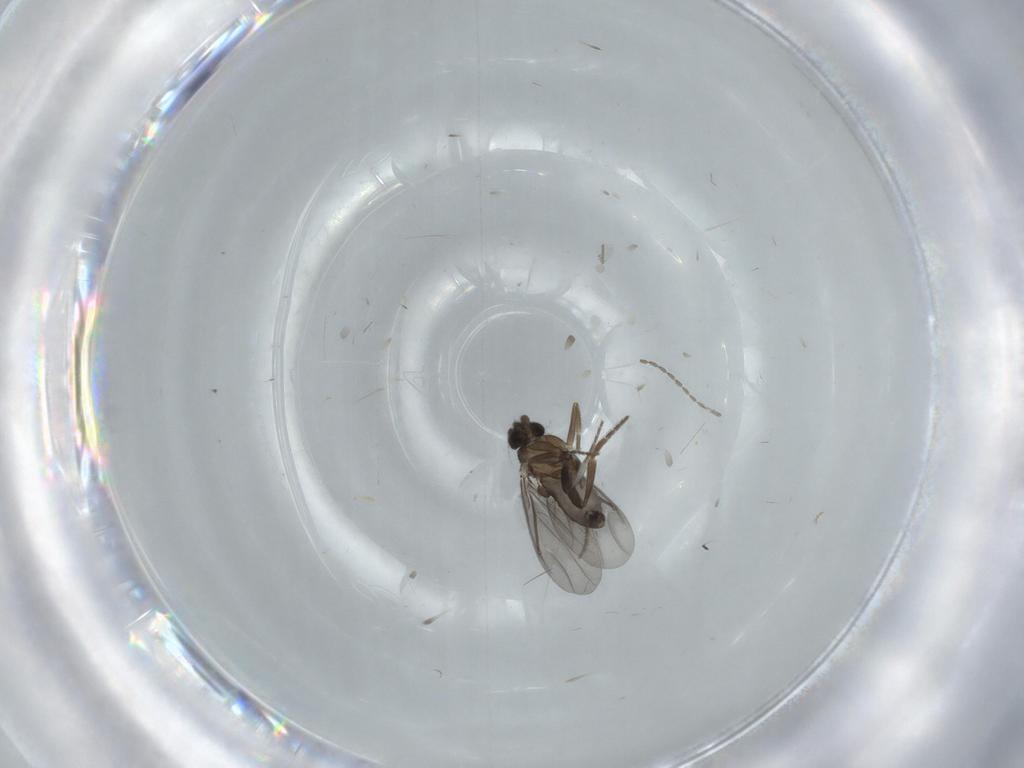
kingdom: Animalia
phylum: Arthropoda
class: Insecta
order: Diptera
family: Phoridae
